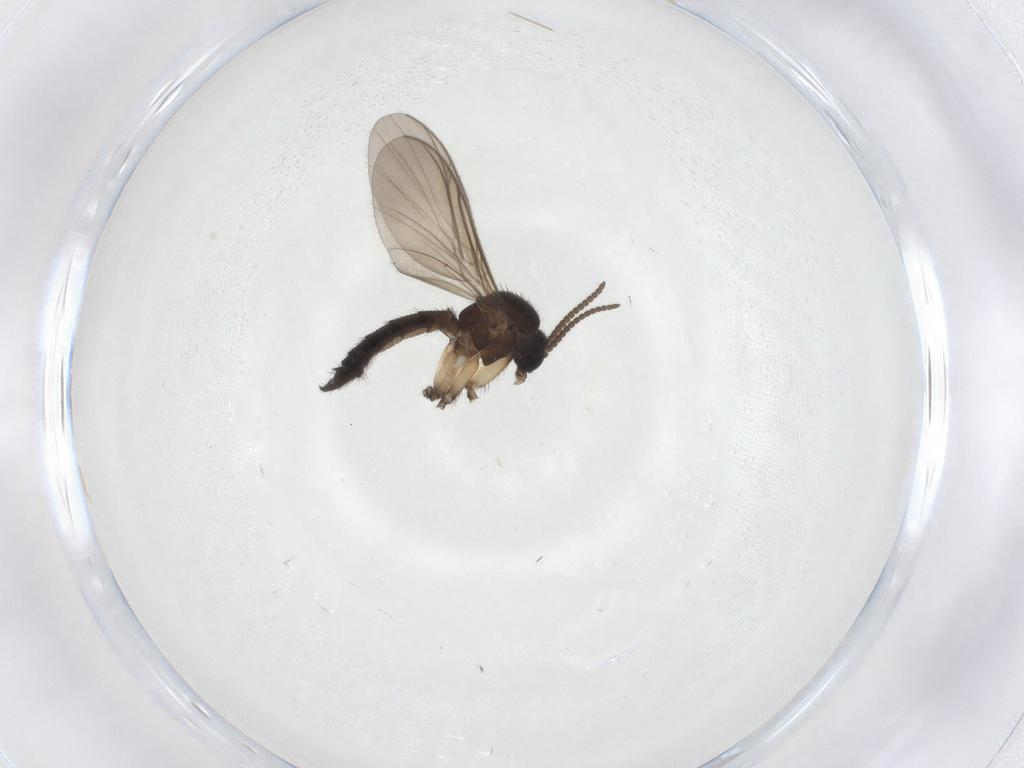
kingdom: Animalia
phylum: Arthropoda
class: Insecta
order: Diptera
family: Keroplatidae
